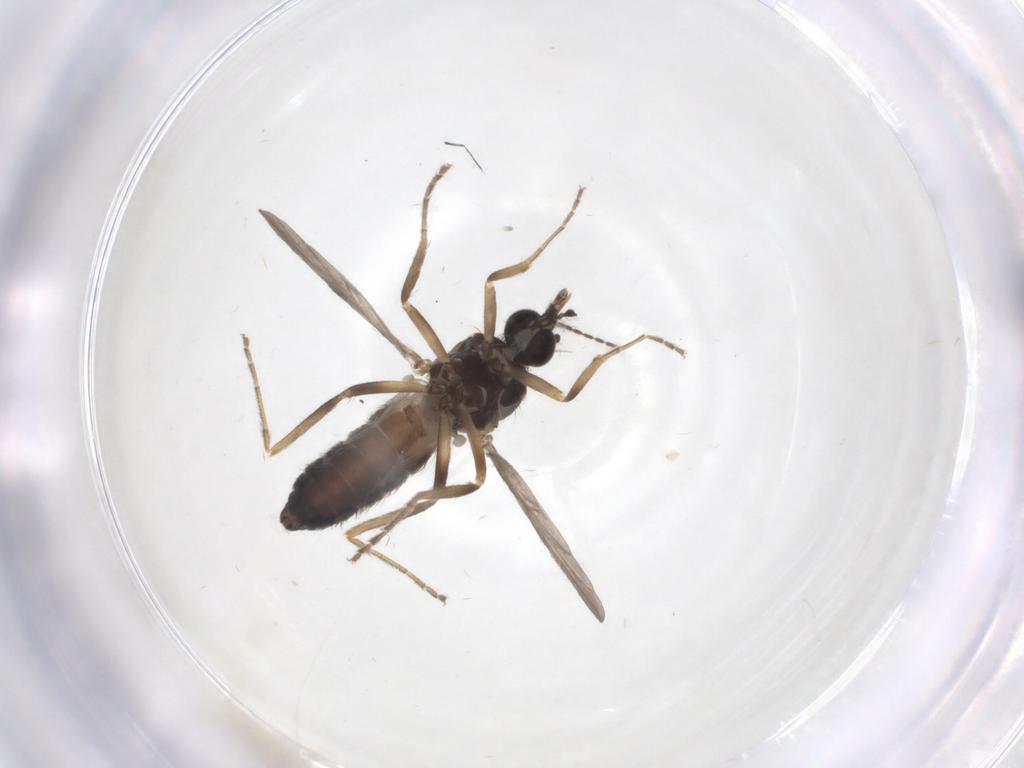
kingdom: Animalia
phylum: Arthropoda
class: Insecta
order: Diptera
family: Ceratopogonidae
